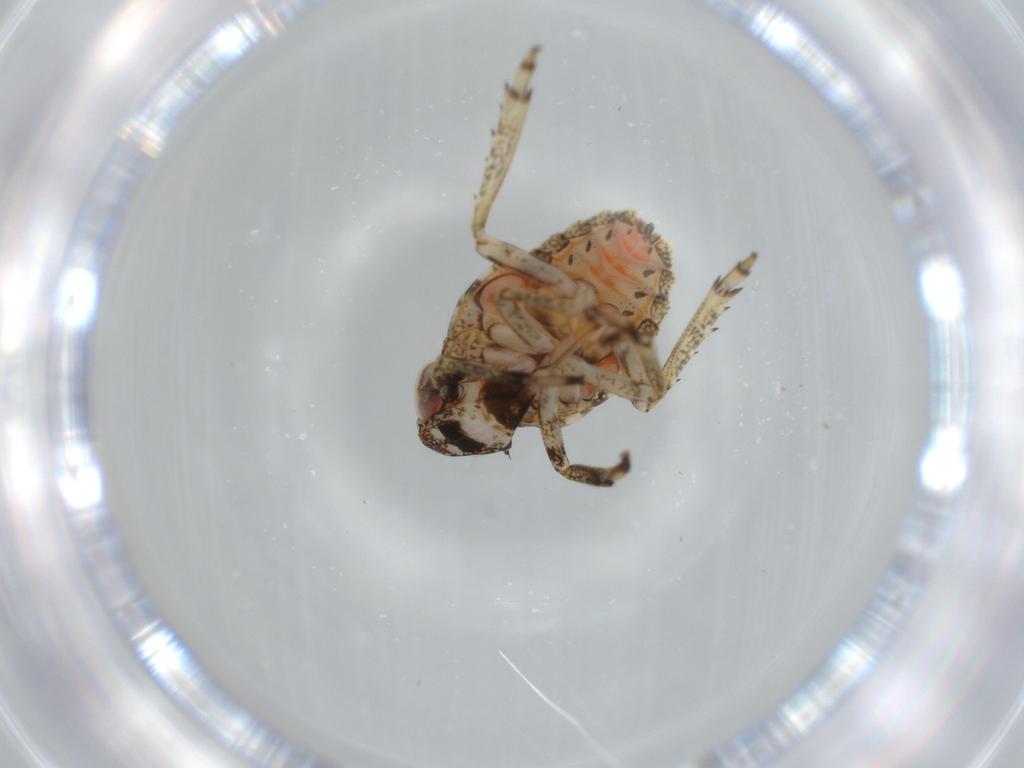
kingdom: Animalia
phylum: Arthropoda
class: Insecta
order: Hemiptera
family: Issidae
